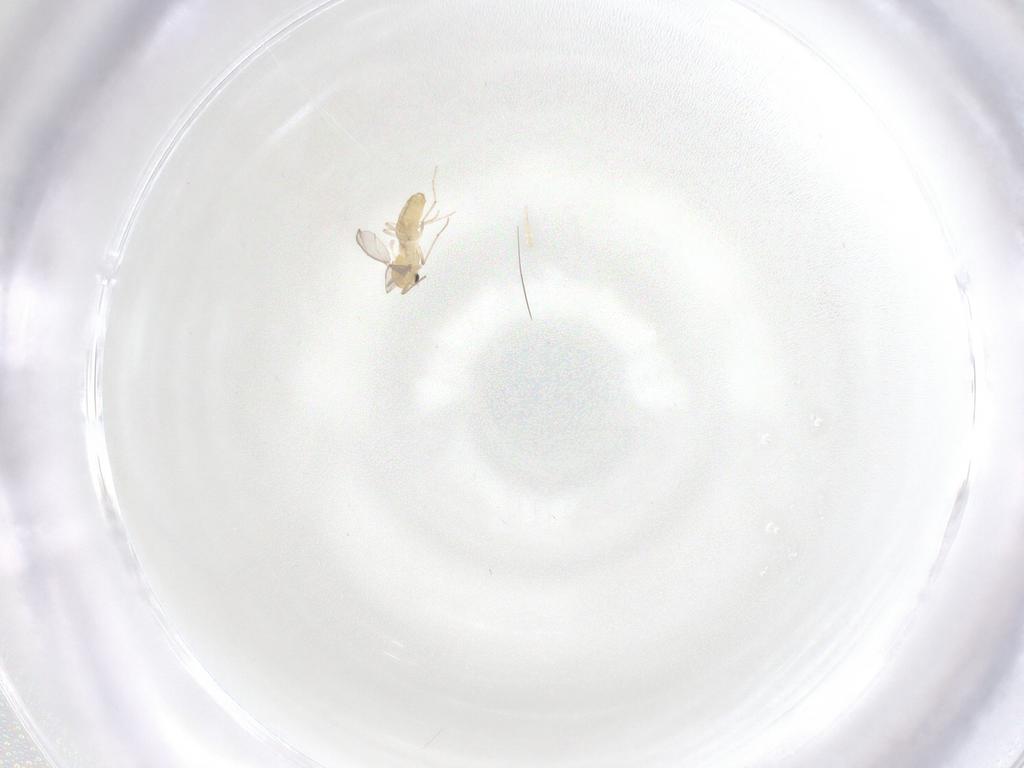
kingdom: Animalia
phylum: Arthropoda
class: Insecta
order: Diptera
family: Chironomidae
